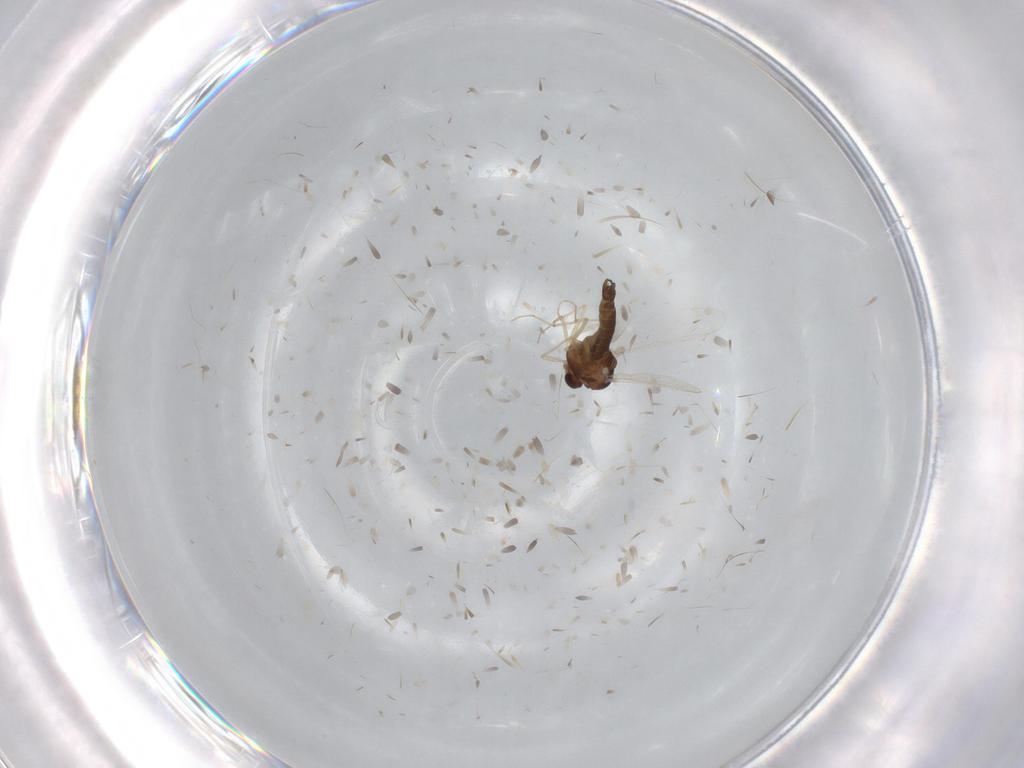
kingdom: Animalia
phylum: Arthropoda
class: Insecta
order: Diptera
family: Chironomidae
